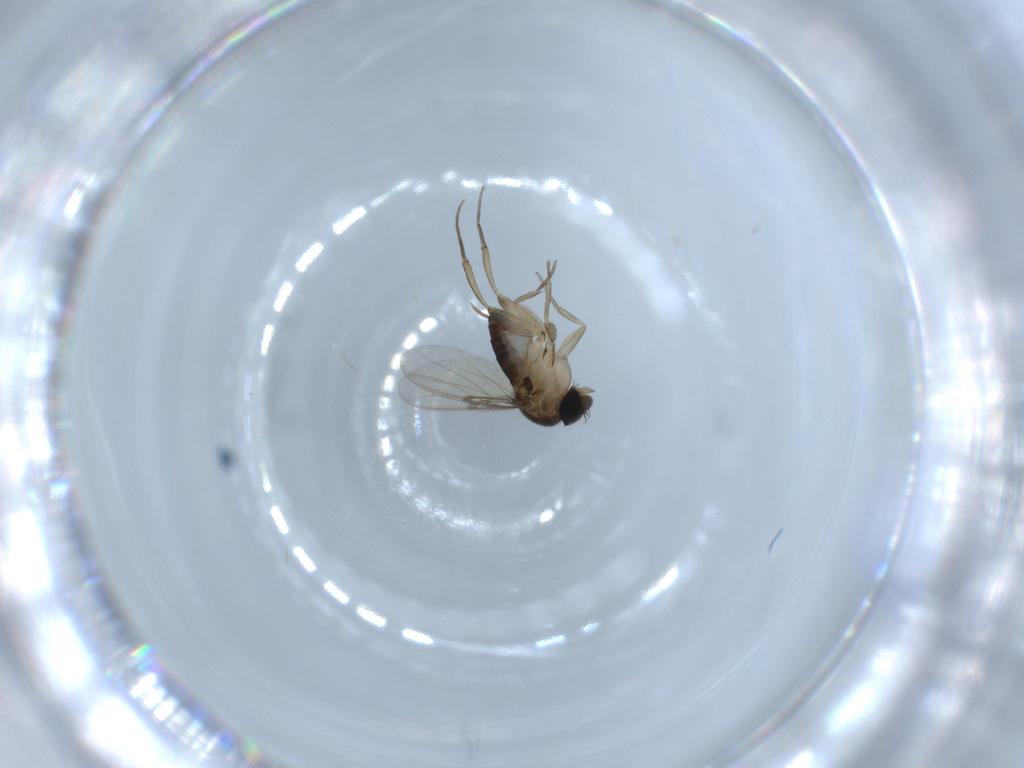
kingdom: Animalia
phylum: Arthropoda
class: Insecta
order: Diptera
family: Phoridae
